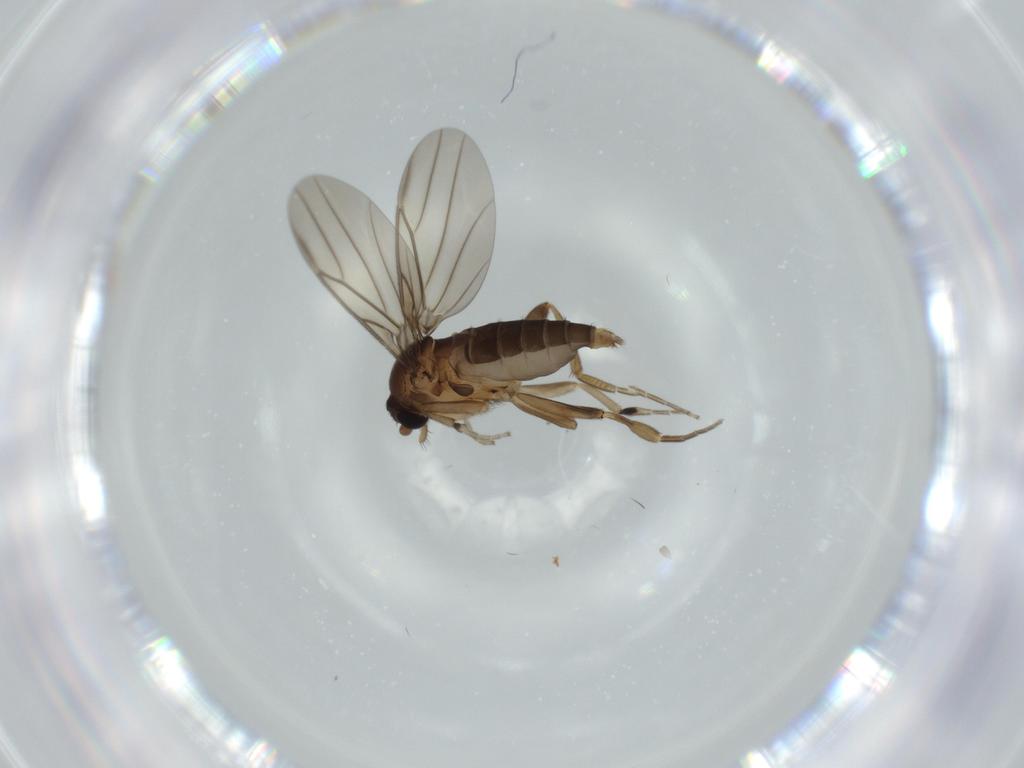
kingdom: Animalia
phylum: Arthropoda
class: Insecta
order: Diptera
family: Phoridae
